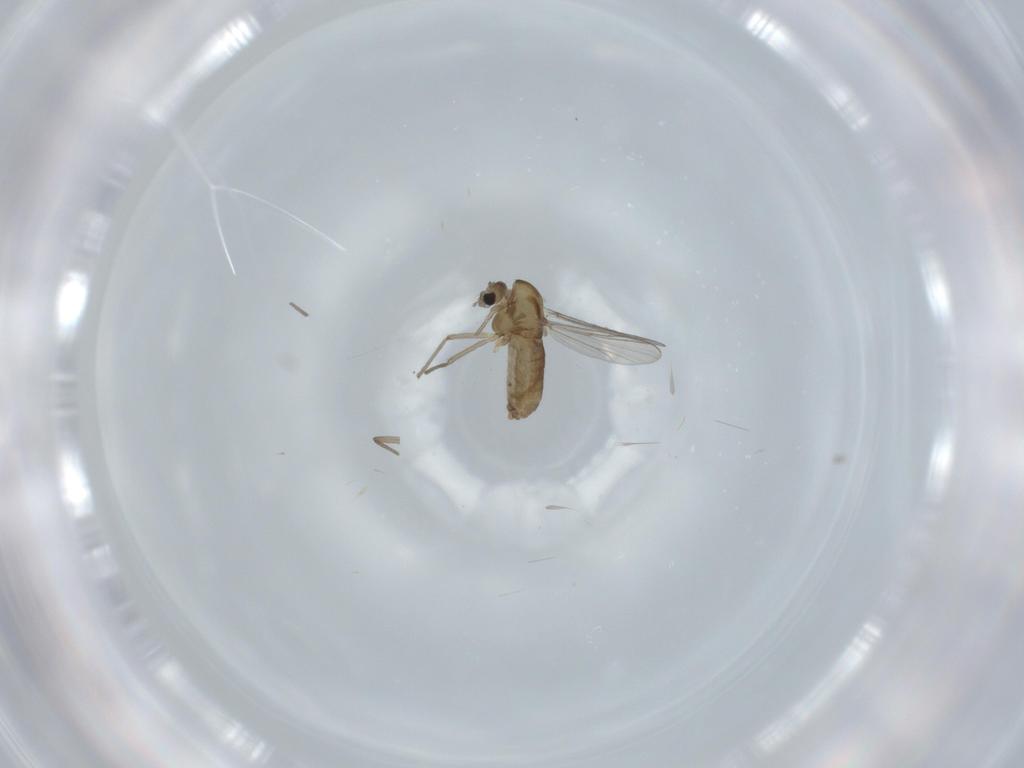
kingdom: Animalia
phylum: Arthropoda
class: Insecta
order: Diptera
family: Chironomidae
